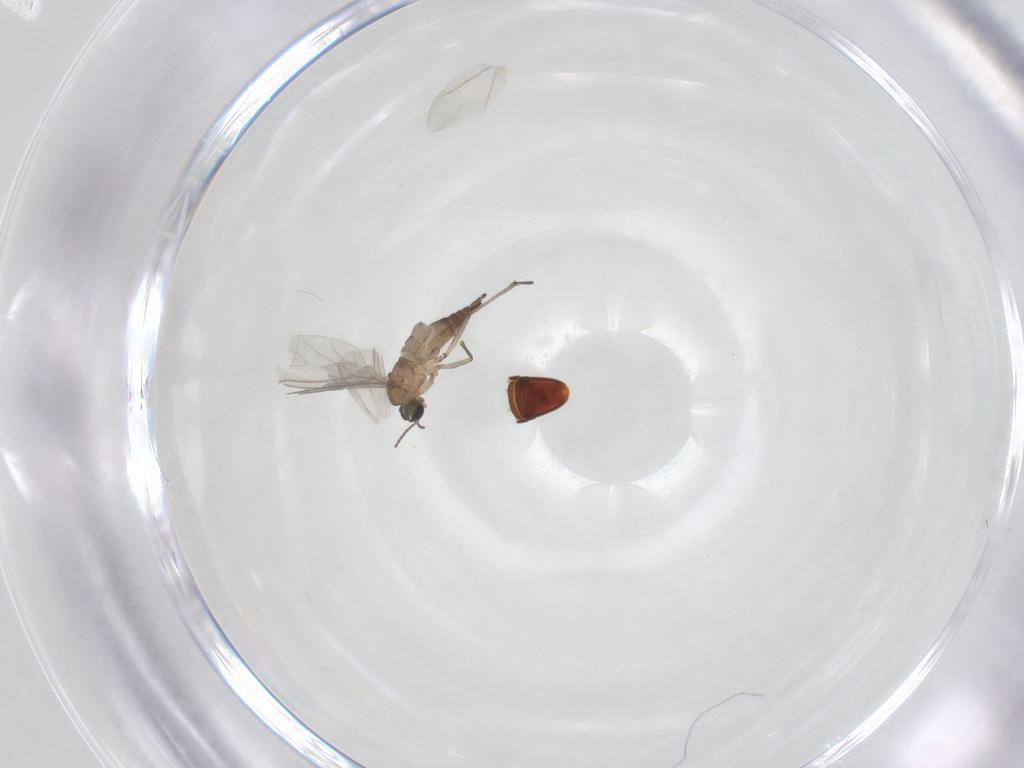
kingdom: Animalia
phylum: Arthropoda
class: Insecta
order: Diptera
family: Sciaridae
